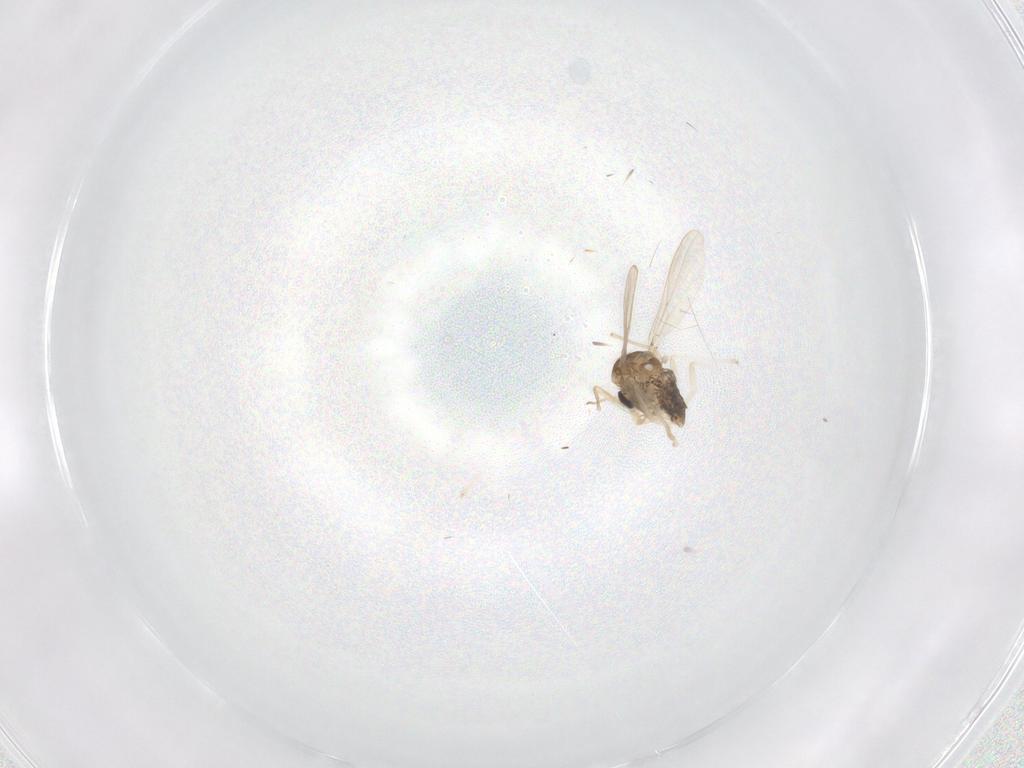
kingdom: Animalia
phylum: Arthropoda
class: Insecta
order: Diptera
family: Chironomidae
